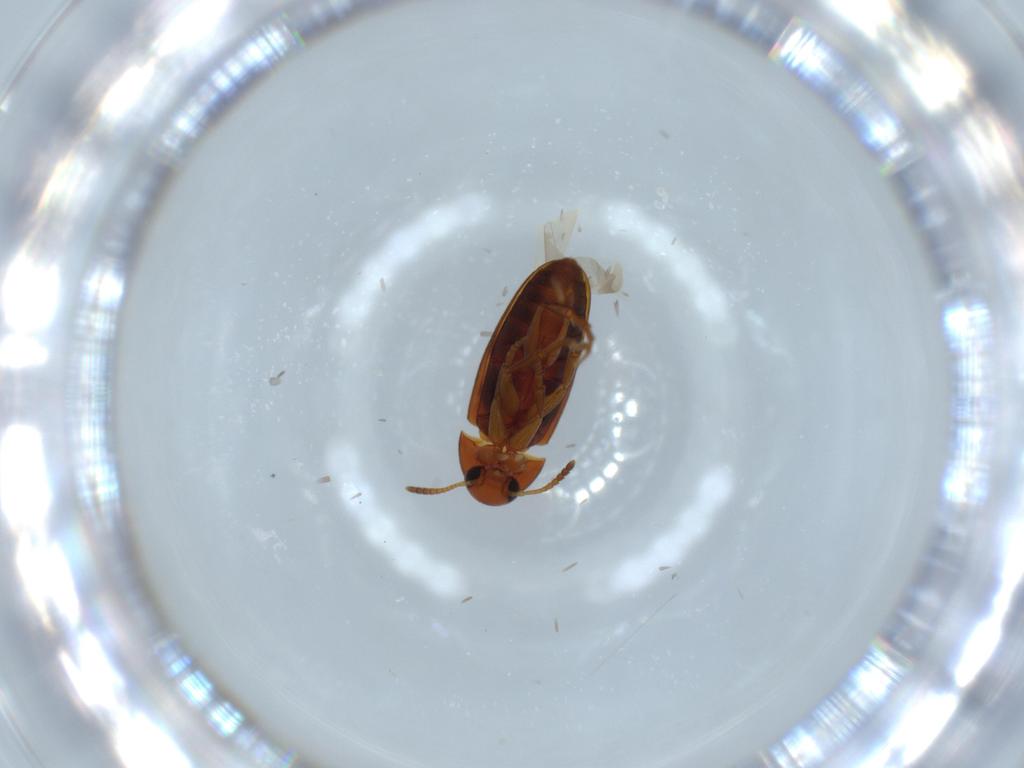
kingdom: Animalia
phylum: Arthropoda
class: Insecta
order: Coleoptera
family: Scraptiidae
